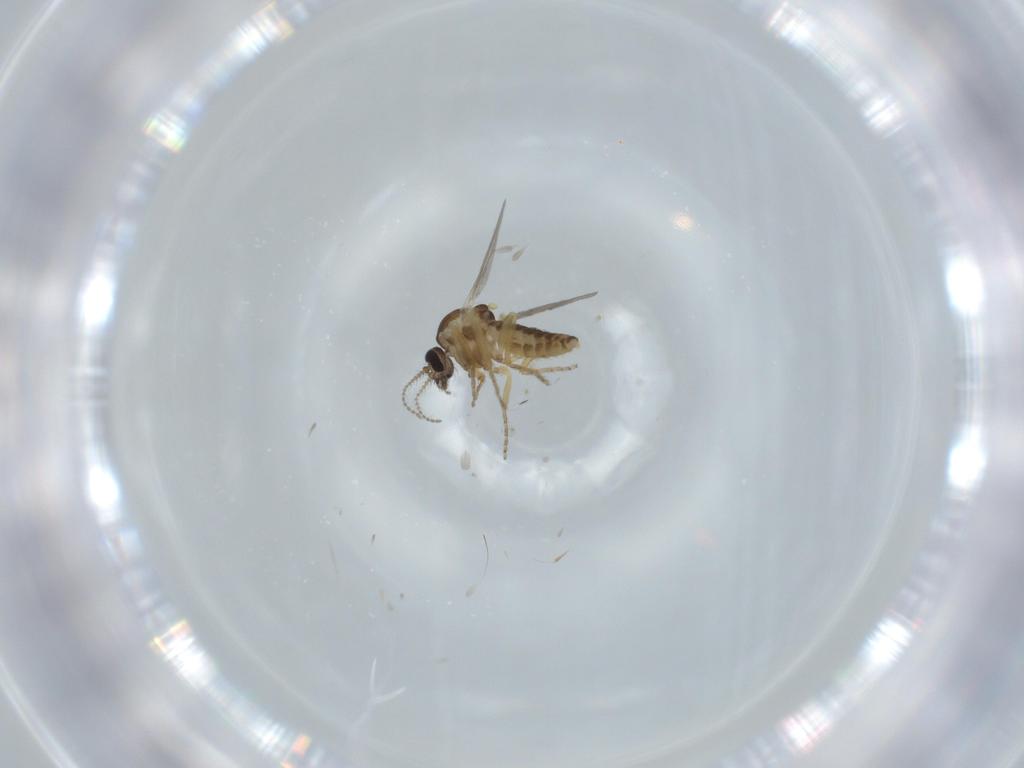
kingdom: Animalia
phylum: Arthropoda
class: Insecta
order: Diptera
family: Ceratopogonidae
